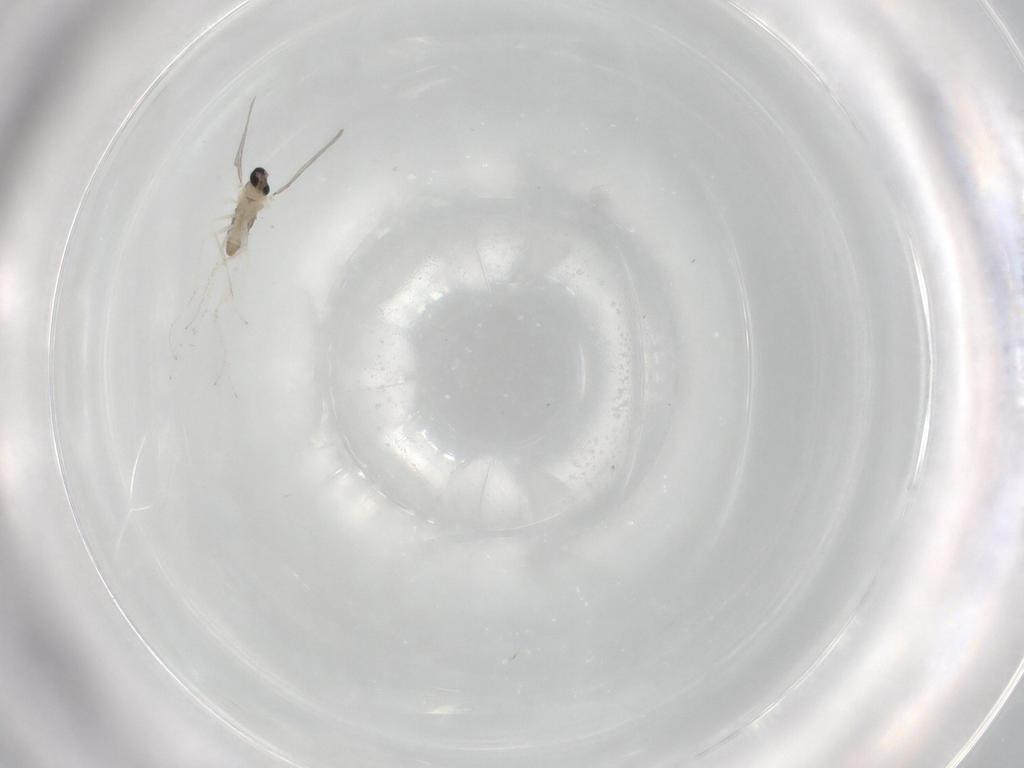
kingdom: Animalia
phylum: Arthropoda
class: Insecta
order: Diptera
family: Cecidomyiidae
